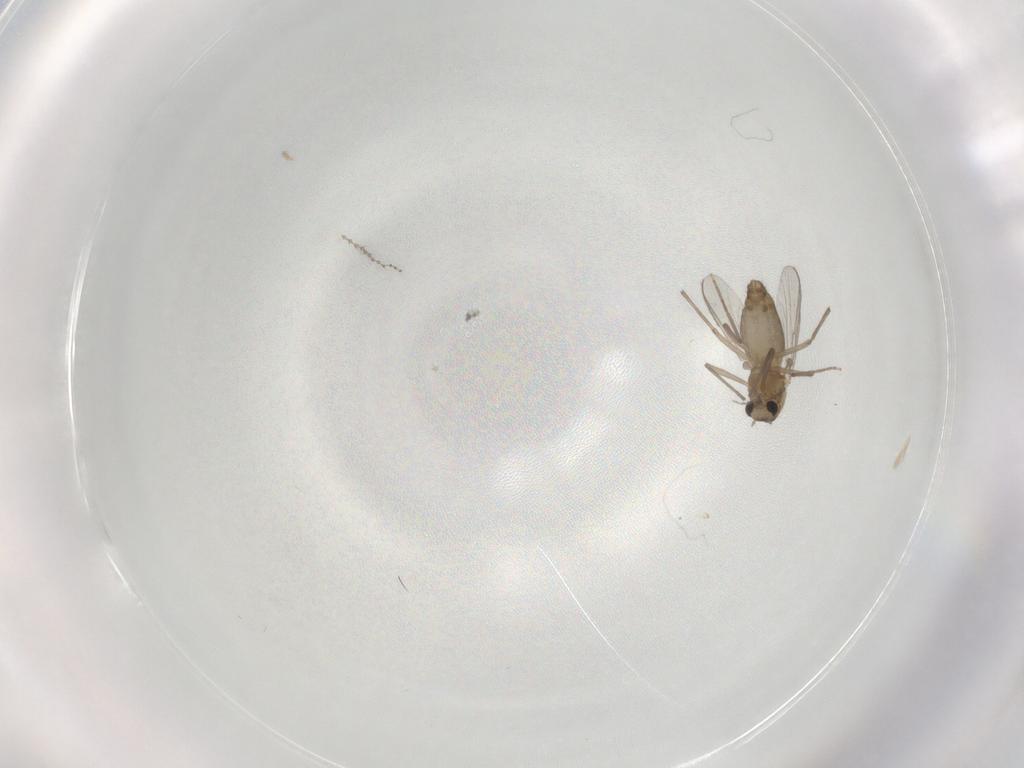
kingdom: Animalia
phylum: Arthropoda
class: Insecta
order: Diptera
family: Chironomidae
